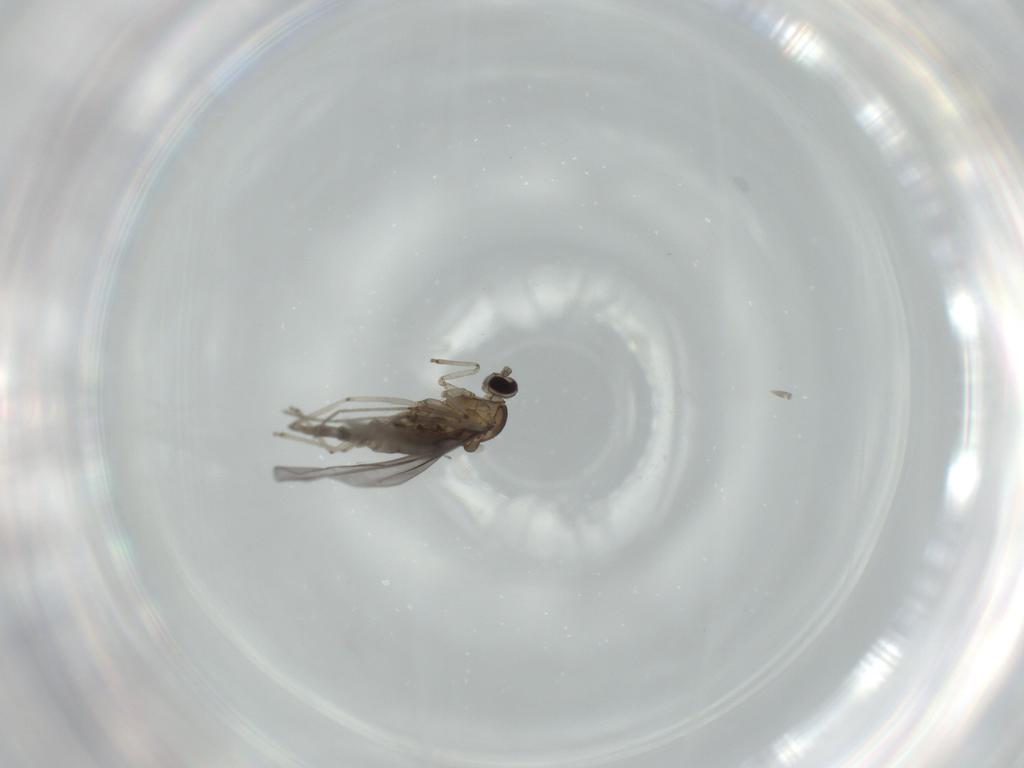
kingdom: Animalia
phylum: Arthropoda
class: Insecta
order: Diptera
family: Cecidomyiidae
